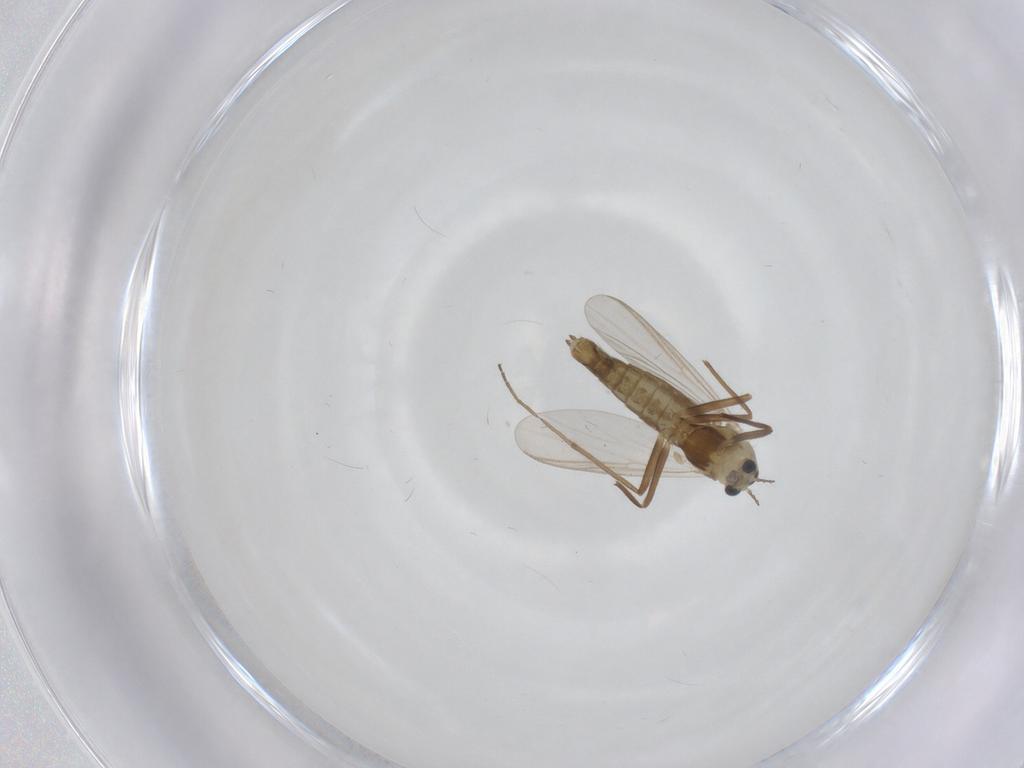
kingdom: Animalia
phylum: Arthropoda
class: Insecta
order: Diptera
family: Chironomidae
